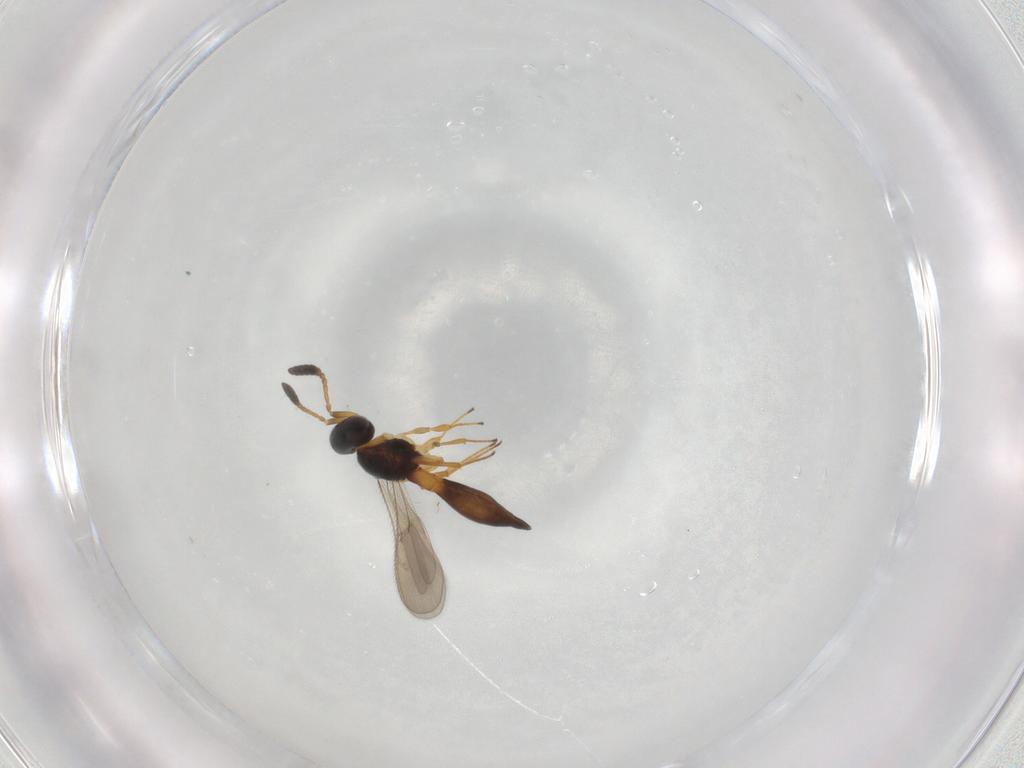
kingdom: Animalia
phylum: Arthropoda
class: Insecta
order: Hymenoptera
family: Scelionidae
